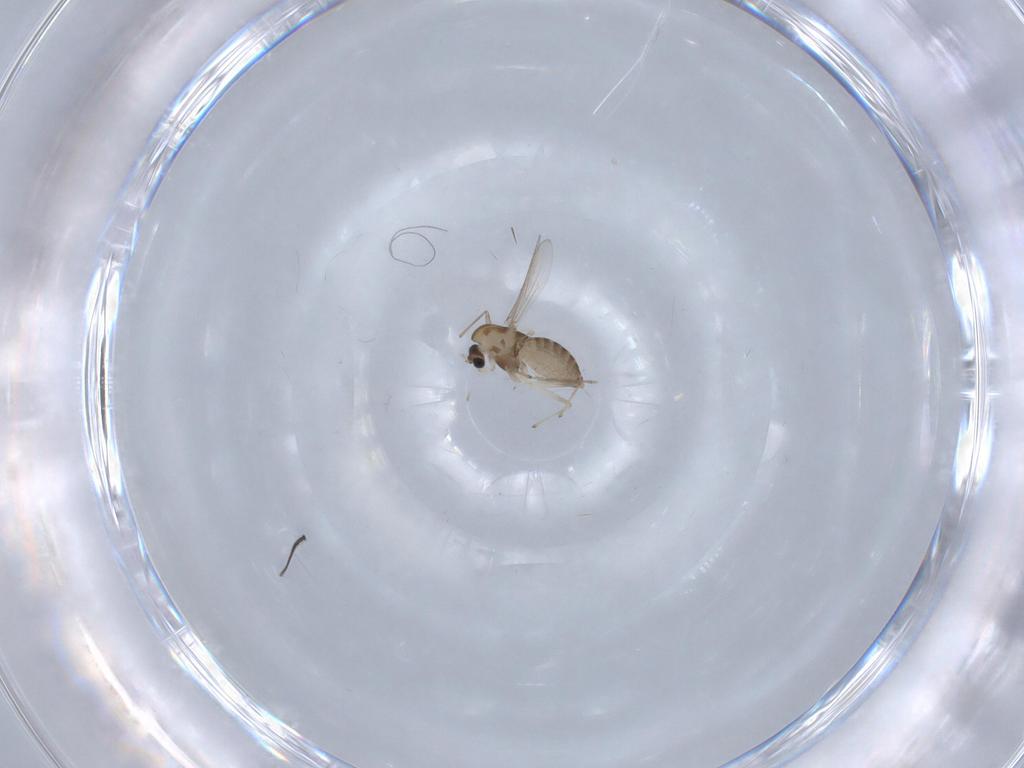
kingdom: Animalia
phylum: Arthropoda
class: Insecta
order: Diptera
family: Chironomidae
